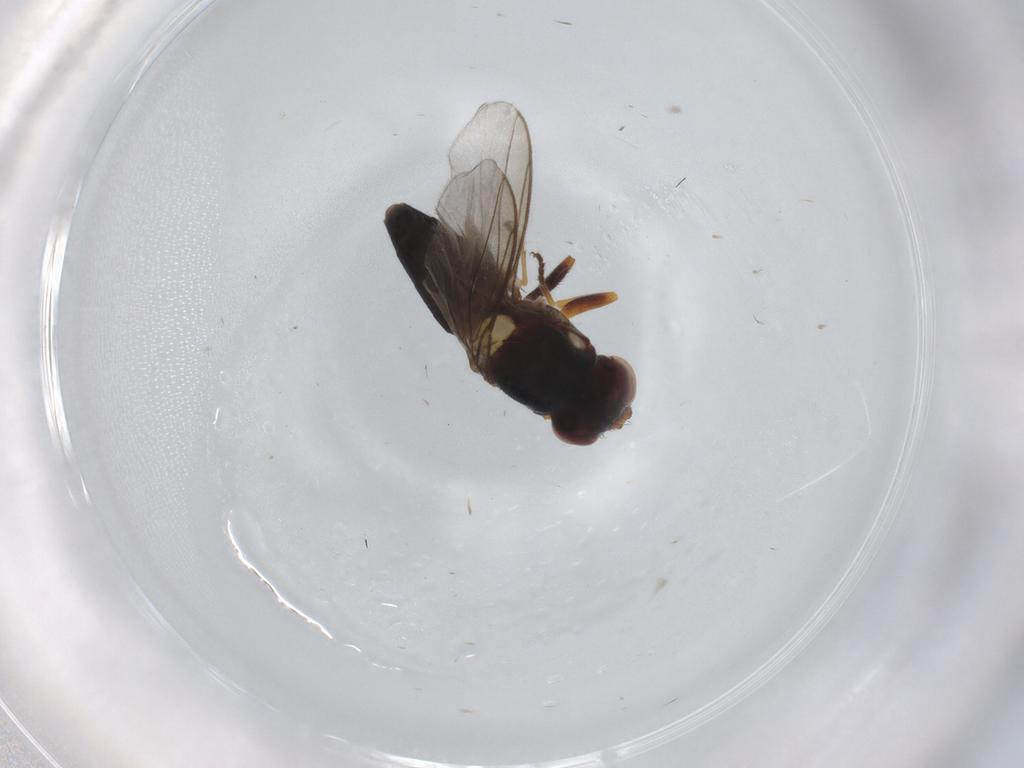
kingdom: Animalia
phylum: Arthropoda
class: Insecta
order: Diptera
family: Chloropidae
